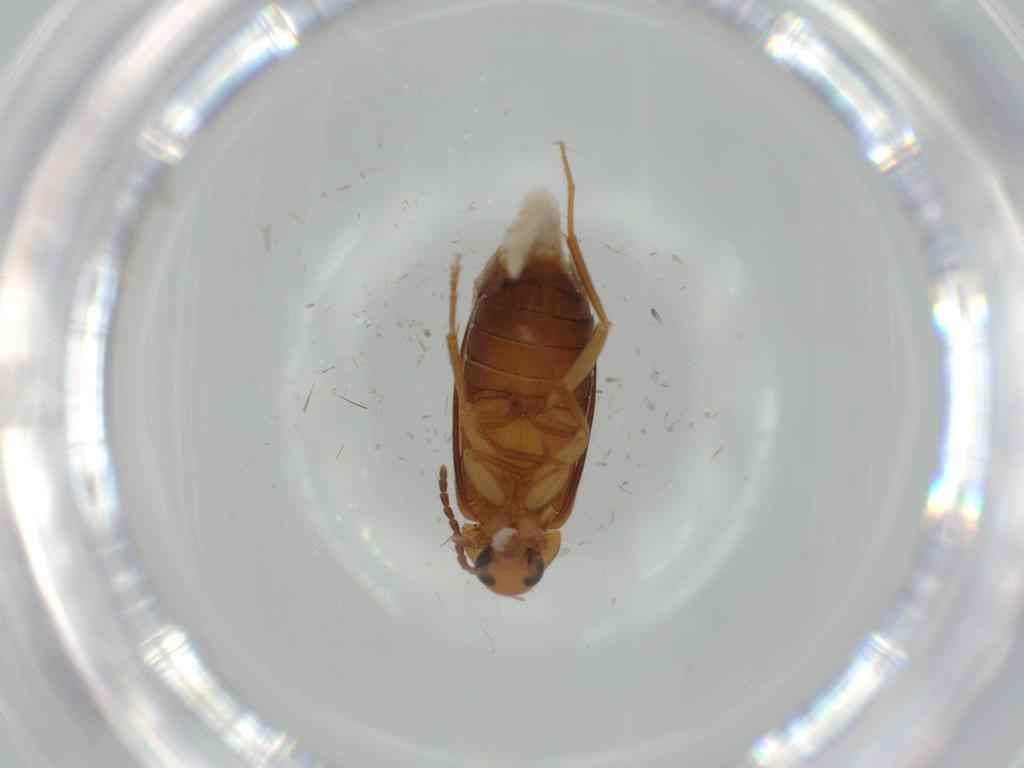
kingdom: Animalia
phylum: Arthropoda
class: Insecta
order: Coleoptera
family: Scraptiidae
